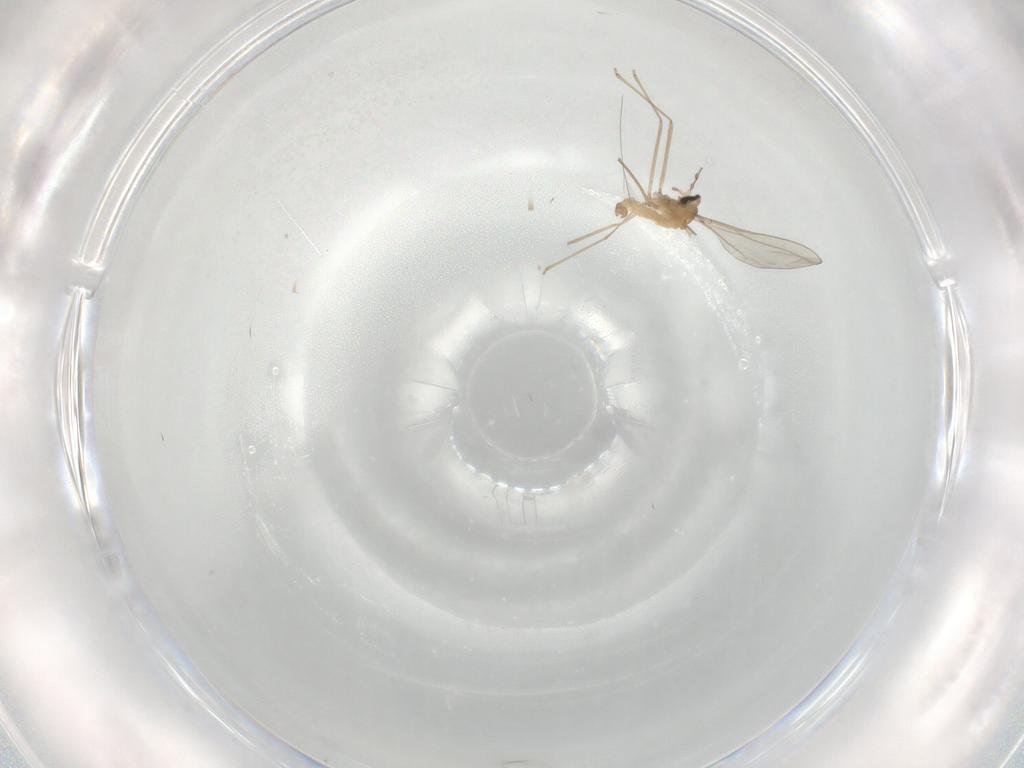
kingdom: Animalia
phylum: Arthropoda
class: Insecta
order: Diptera
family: Cecidomyiidae
